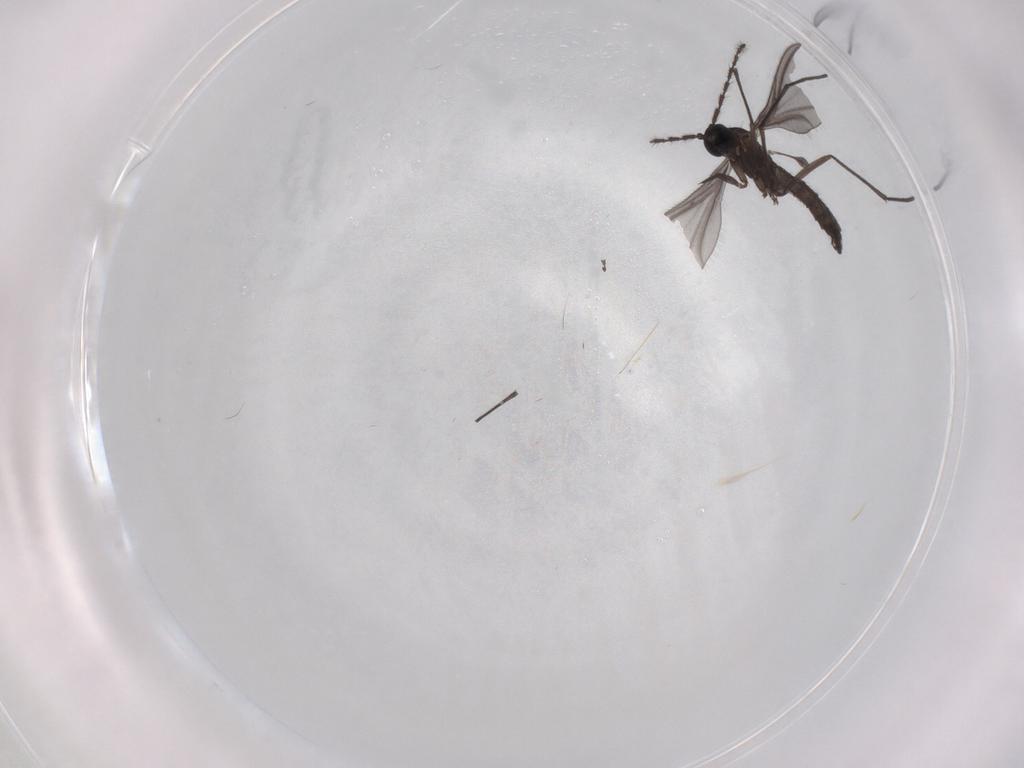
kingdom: Animalia
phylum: Arthropoda
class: Insecta
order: Diptera
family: Sciaridae
